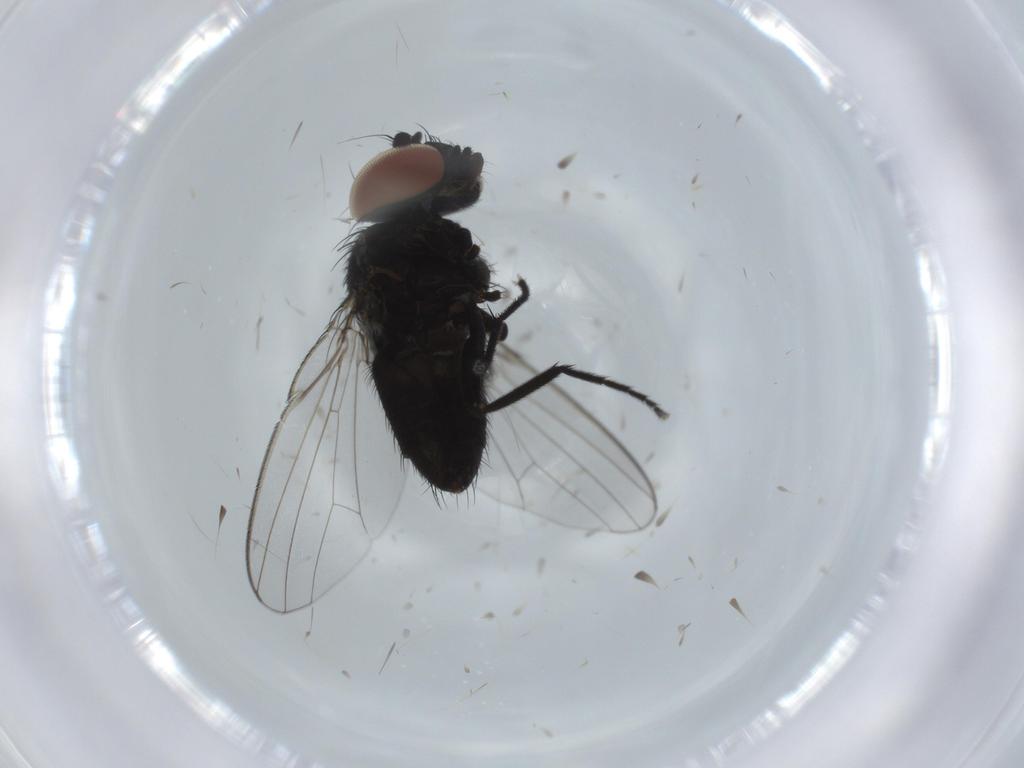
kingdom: Animalia
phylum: Arthropoda
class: Insecta
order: Diptera
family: Milichiidae
